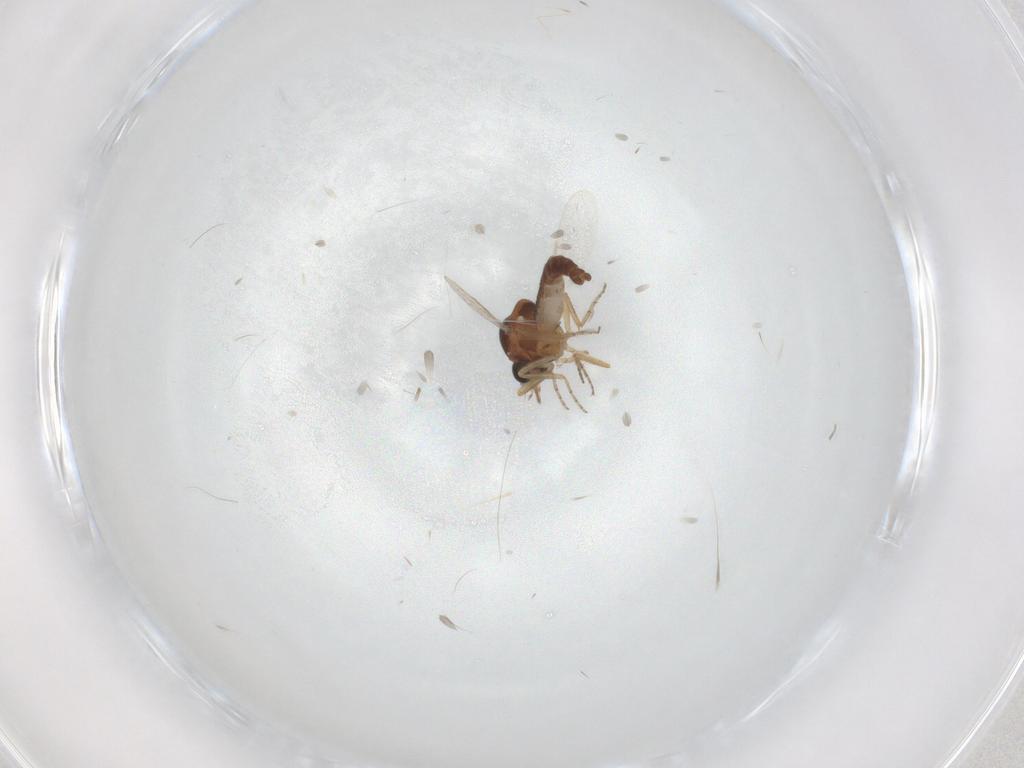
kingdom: Animalia
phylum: Arthropoda
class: Insecta
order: Diptera
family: Ceratopogonidae
